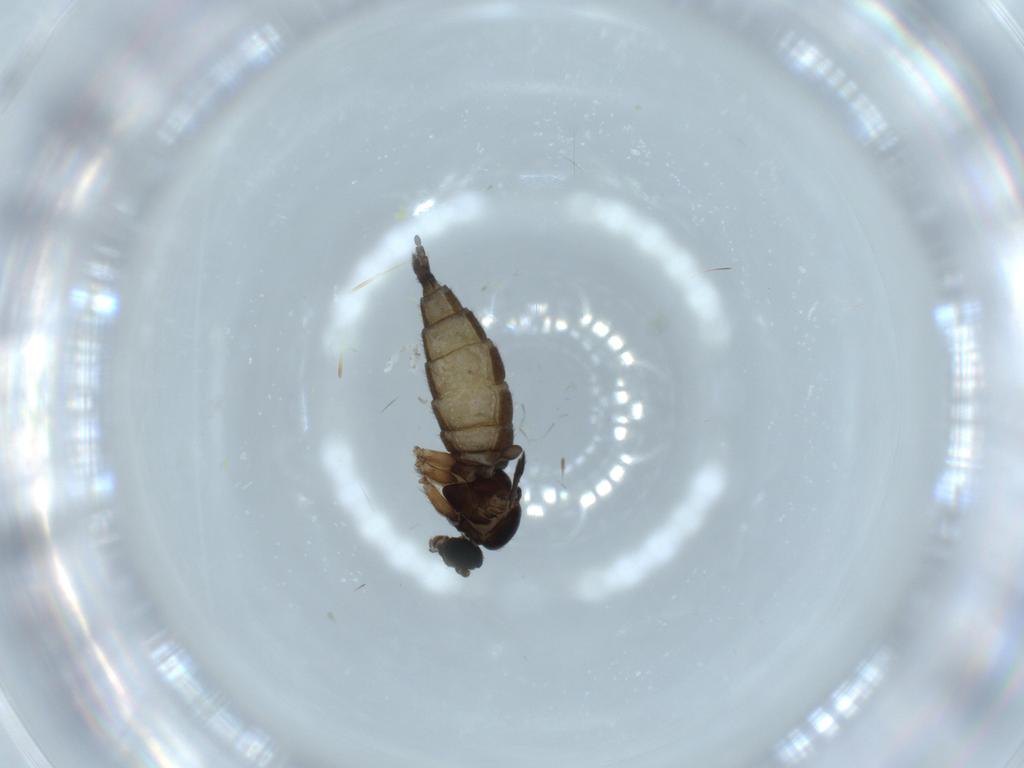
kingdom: Animalia
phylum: Arthropoda
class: Insecta
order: Diptera
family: Sciaridae
